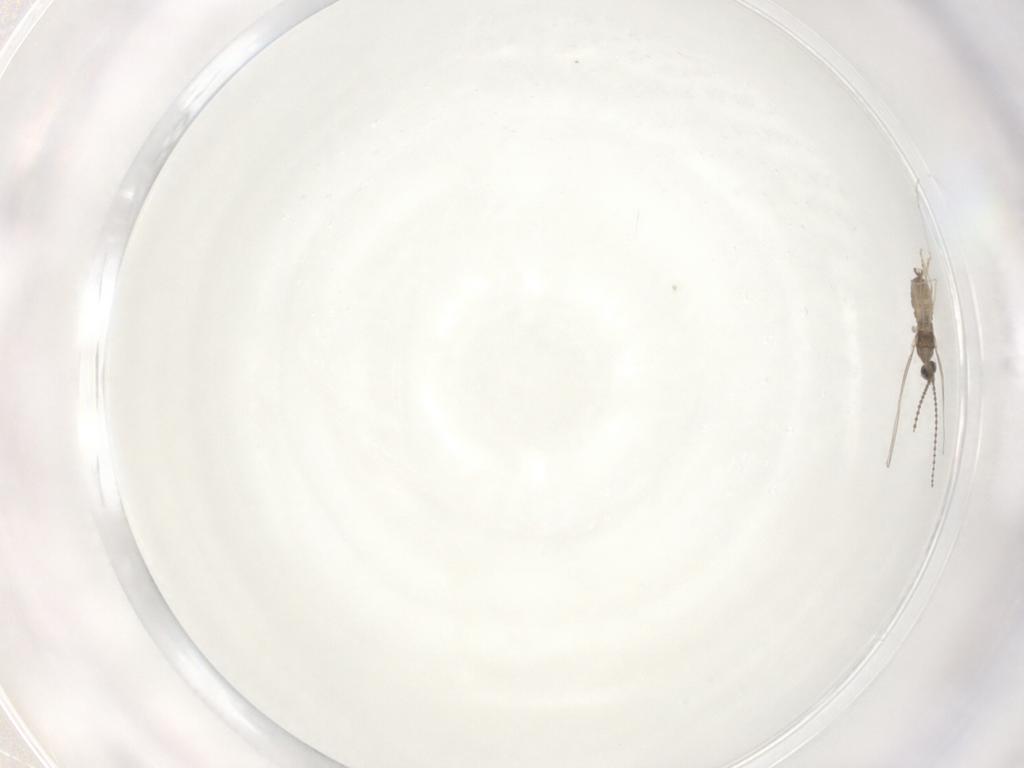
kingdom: Animalia
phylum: Arthropoda
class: Insecta
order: Diptera
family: Cecidomyiidae
